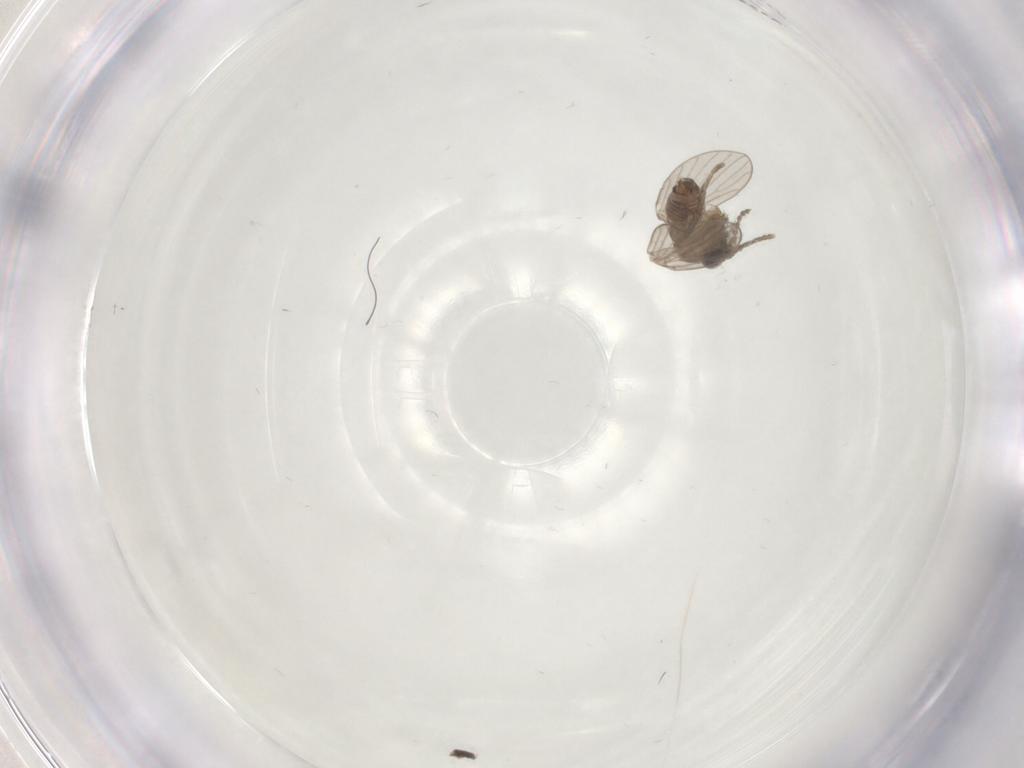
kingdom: Animalia
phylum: Arthropoda
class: Insecta
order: Diptera
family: Psychodidae
